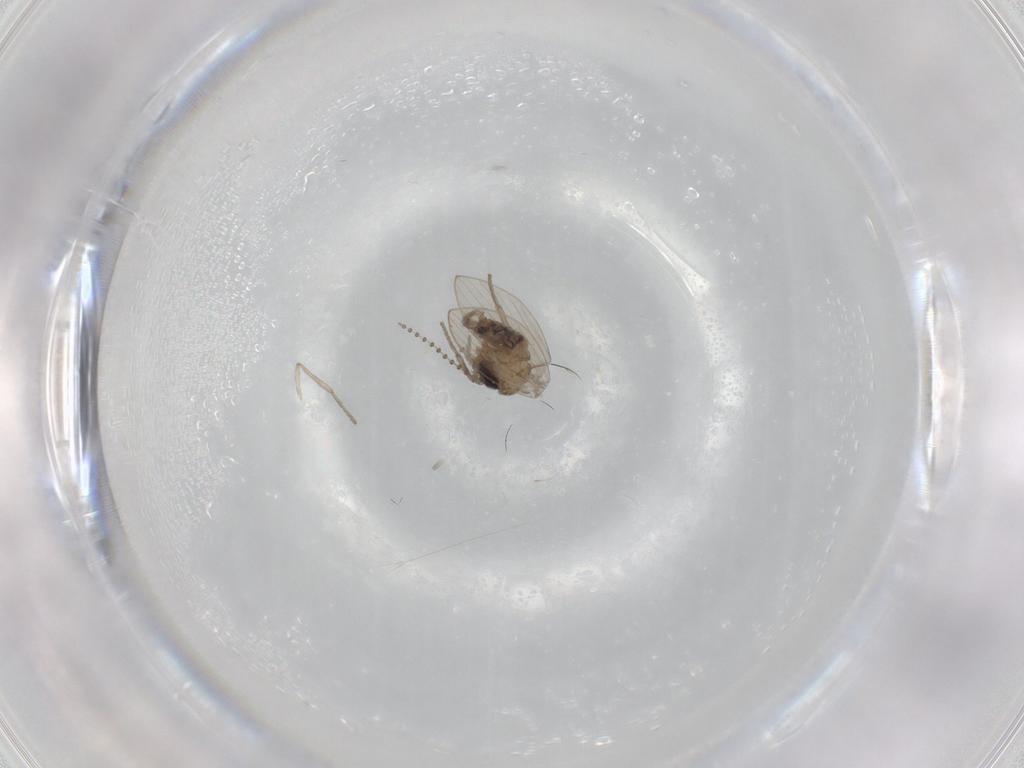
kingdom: Animalia
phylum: Arthropoda
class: Insecta
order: Diptera
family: Psychodidae
